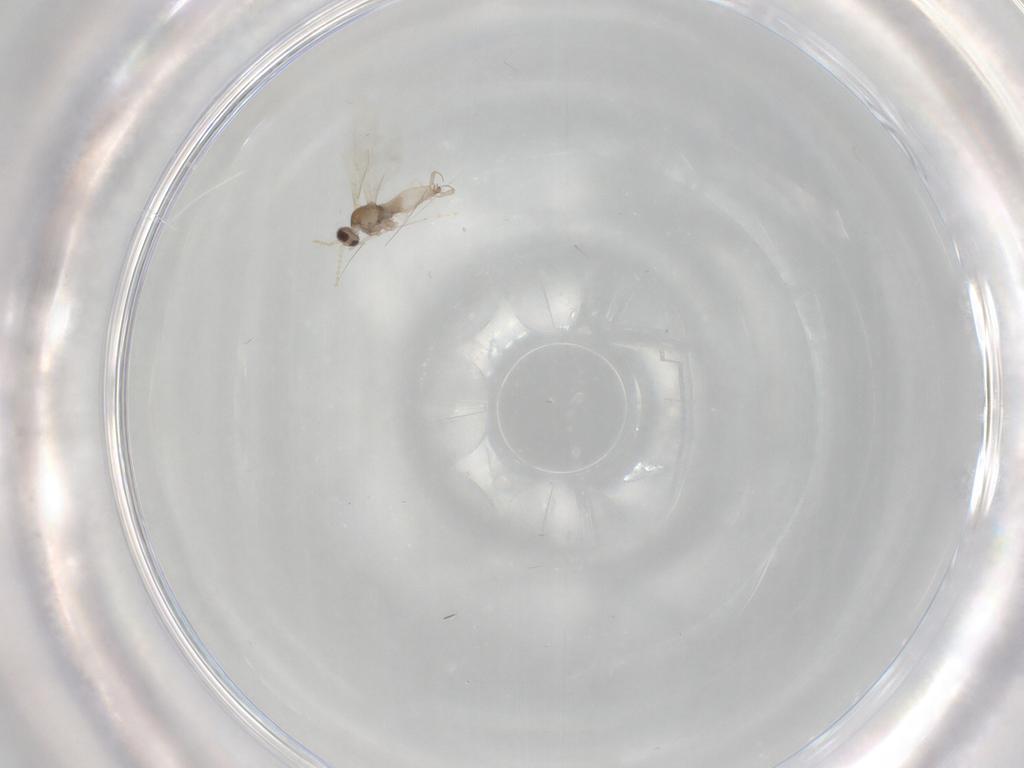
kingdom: Animalia
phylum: Arthropoda
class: Insecta
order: Diptera
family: Cecidomyiidae
